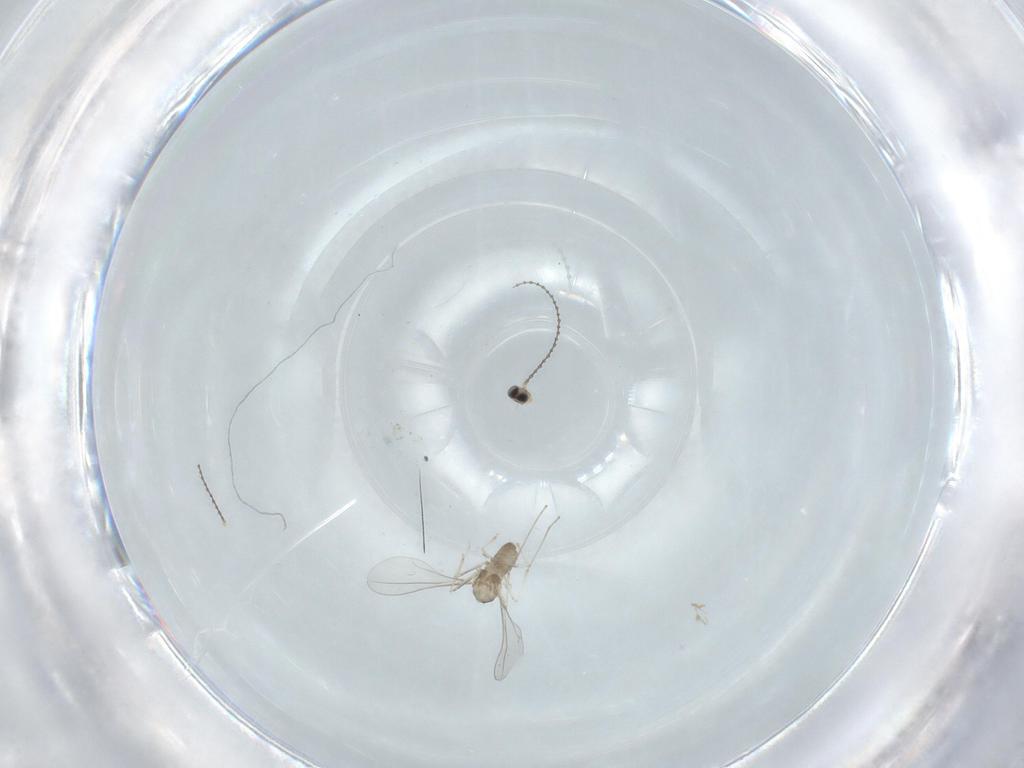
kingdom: Animalia
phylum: Arthropoda
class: Insecta
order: Diptera
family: Cecidomyiidae
